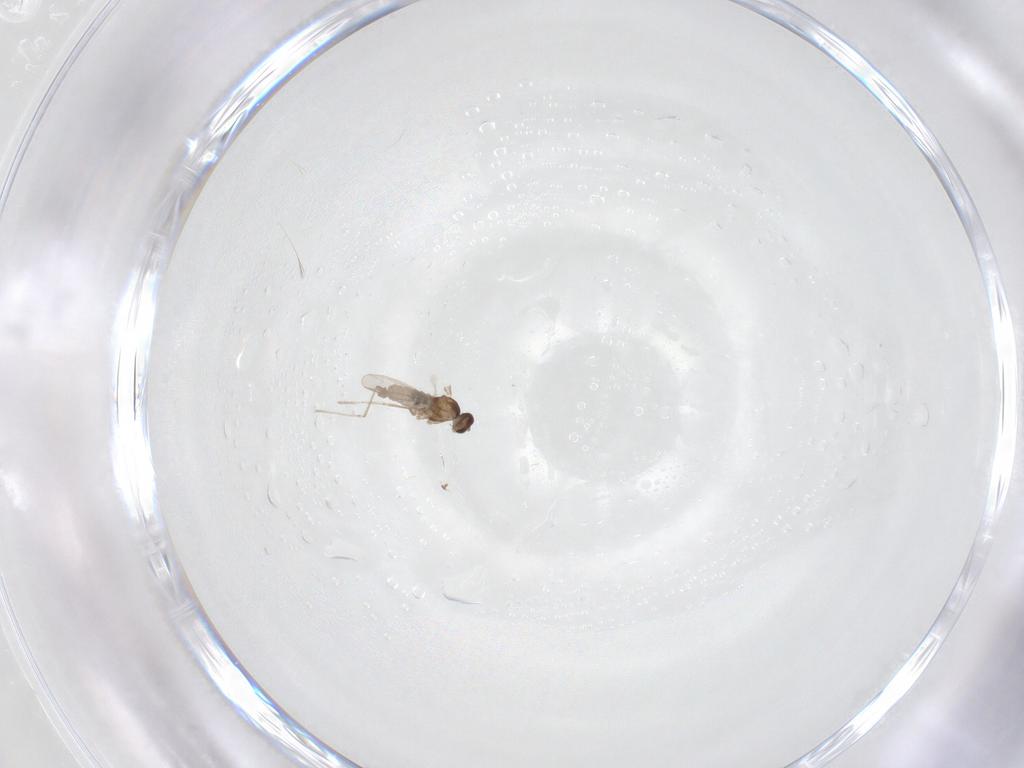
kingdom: Animalia
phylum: Arthropoda
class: Insecta
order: Diptera
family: Cecidomyiidae
